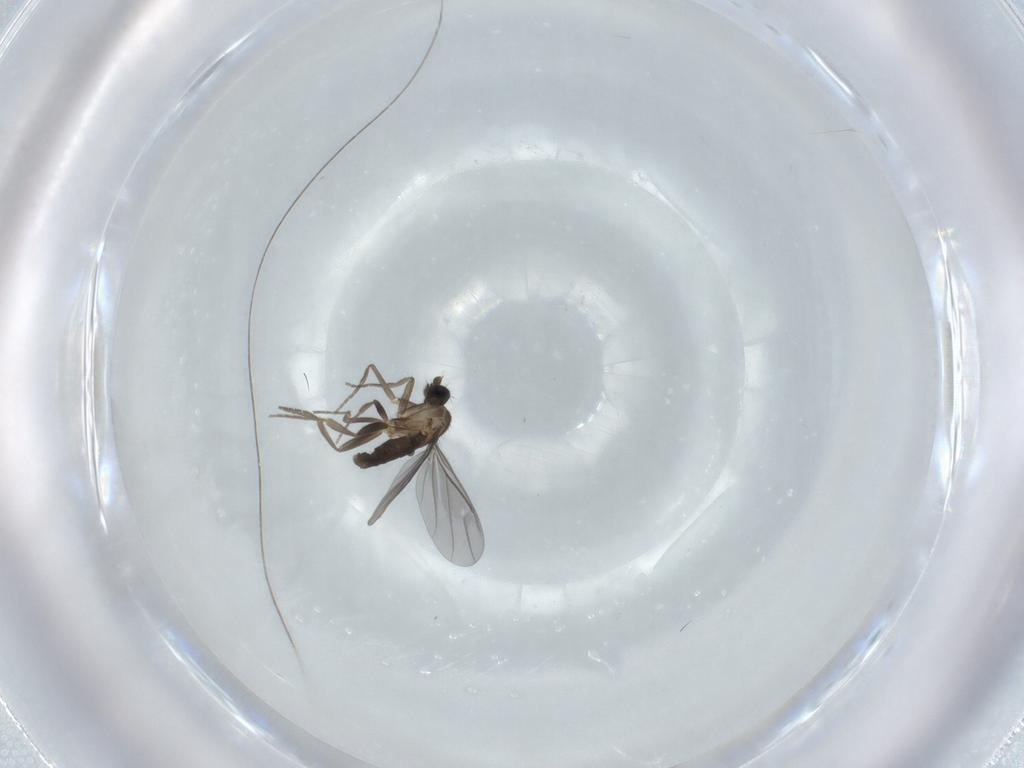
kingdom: Animalia
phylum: Arthropoda
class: Insecta
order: Diptera
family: Phoridae
